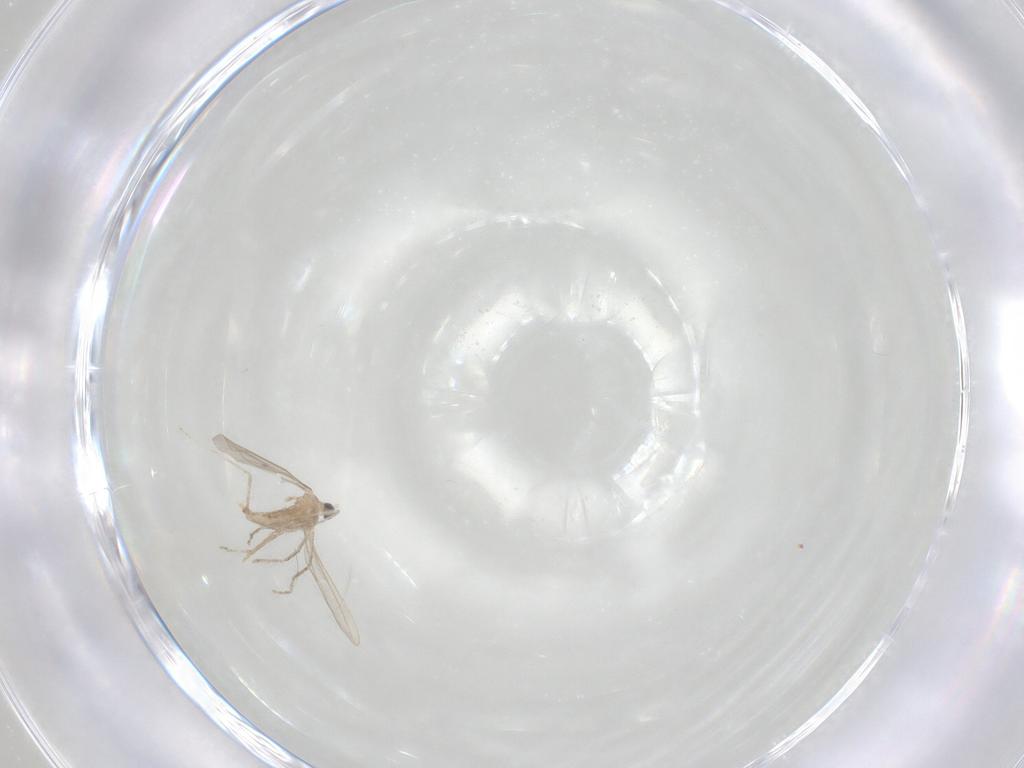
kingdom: Animalia
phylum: Arthropoda
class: Insecta
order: Diptera
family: Cecidomyiidae
